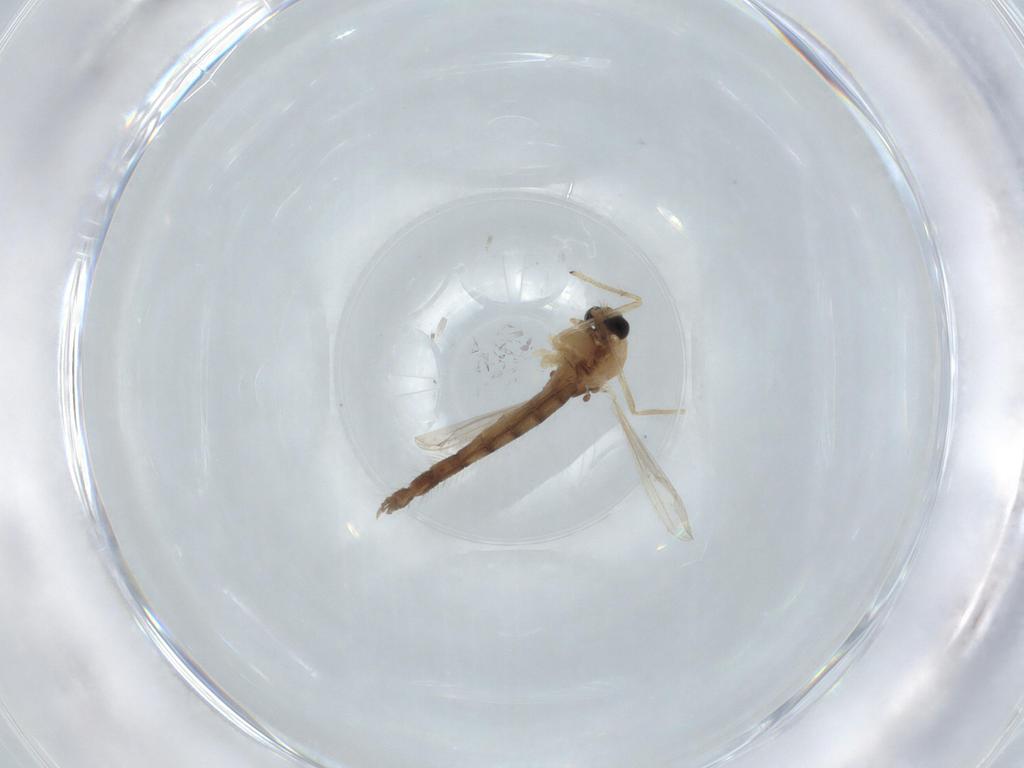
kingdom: Animalia
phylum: Arthropoda
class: Insecta
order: Diptera
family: Chironomidae
